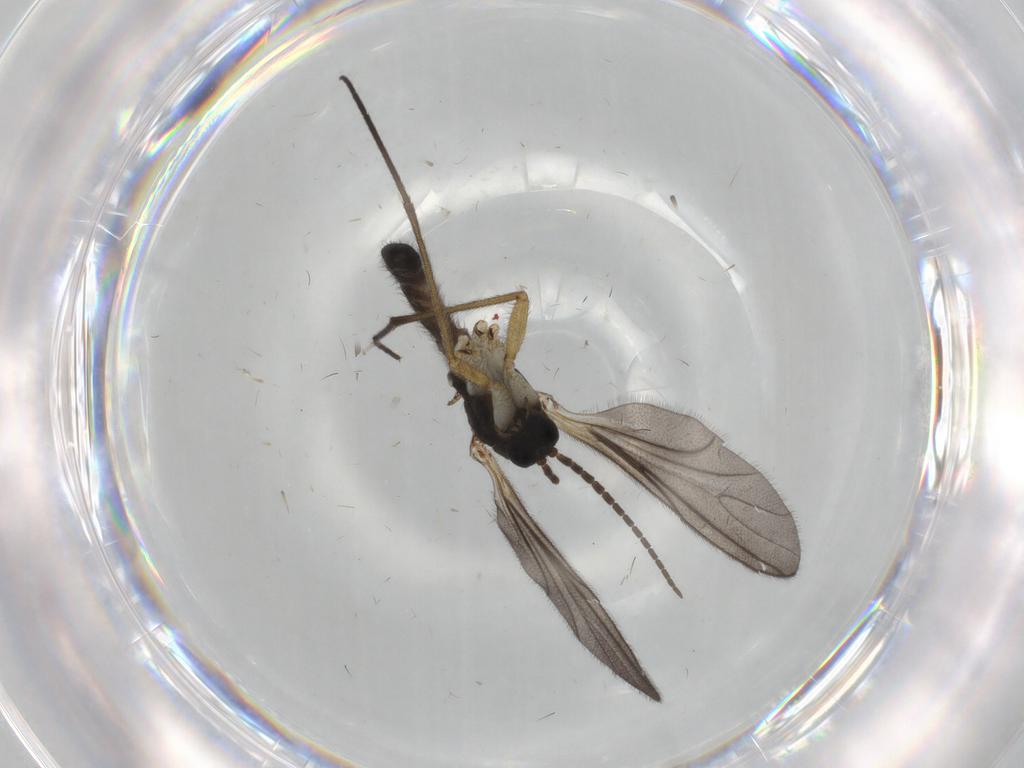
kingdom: Animalia
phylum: Arthropoda
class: Insecta
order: Diptera
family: Sciaridae
